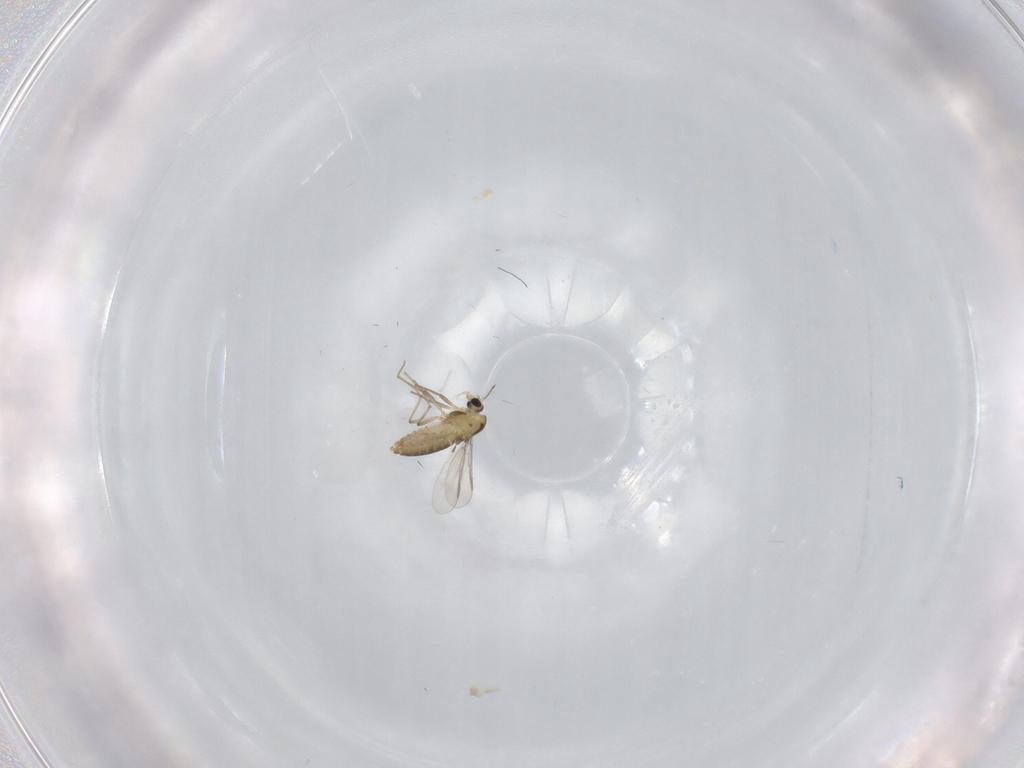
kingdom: Animalia
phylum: Arthropoda
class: Insecta
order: Diptera
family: Chironomidae
